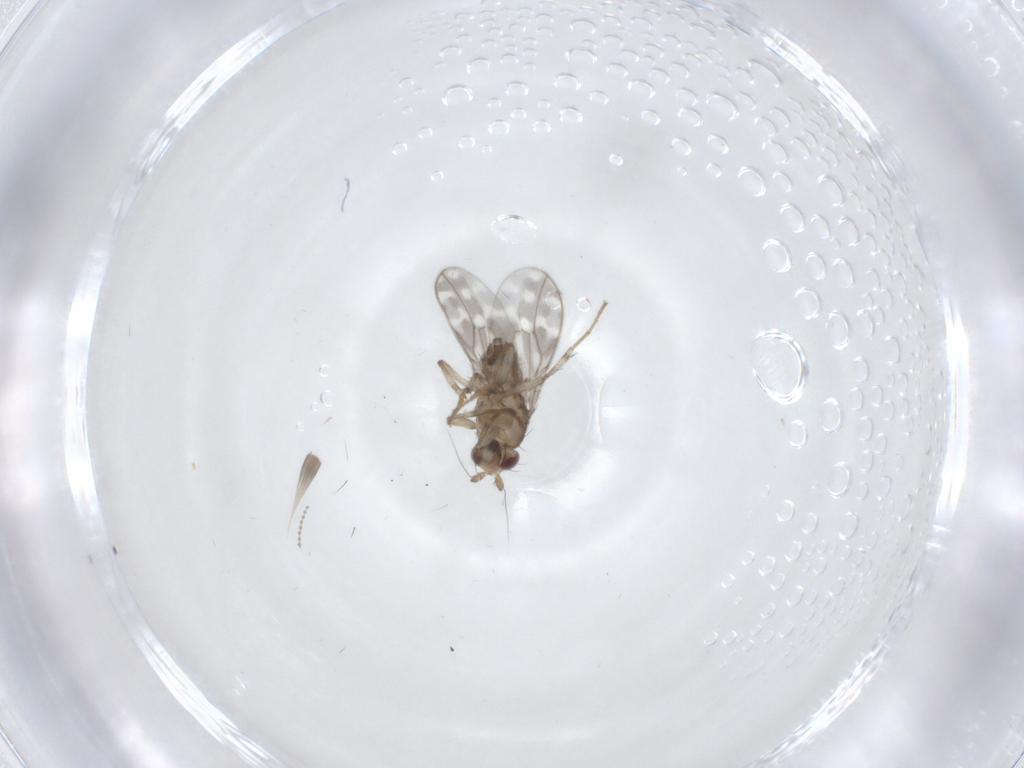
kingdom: Animalia
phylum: Arthropoda
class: Insecta
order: Diptera
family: Sphaeroceridae
